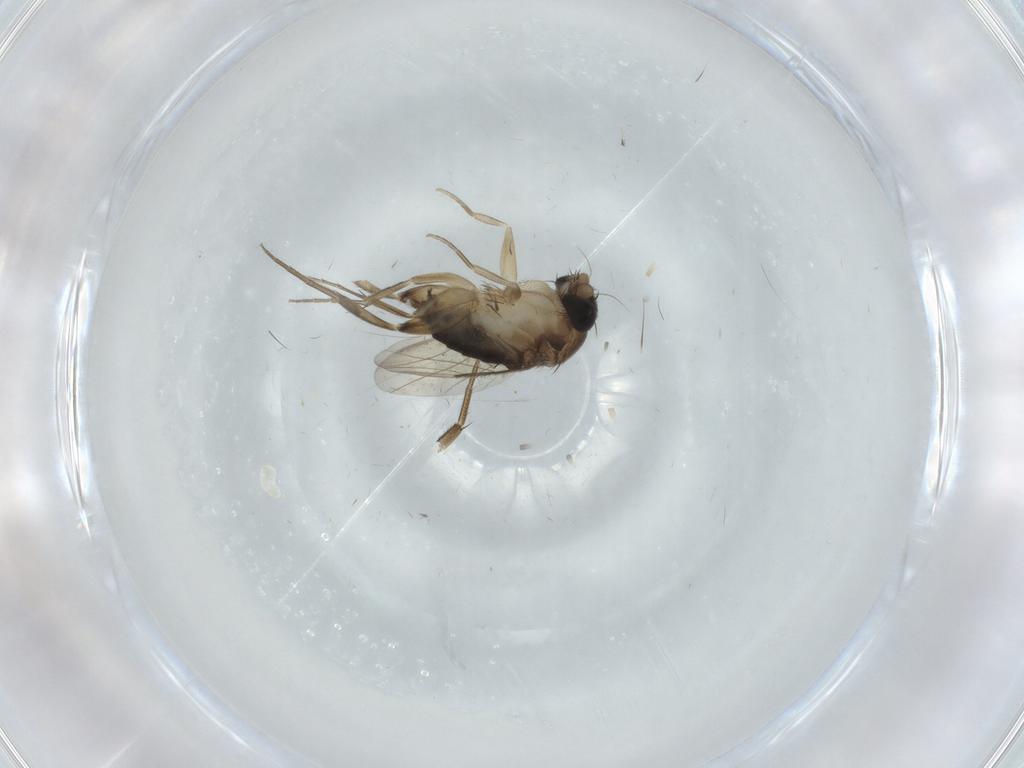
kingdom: Animalia
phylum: Arthropoda
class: Insecta
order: Diptera
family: Phoridae
